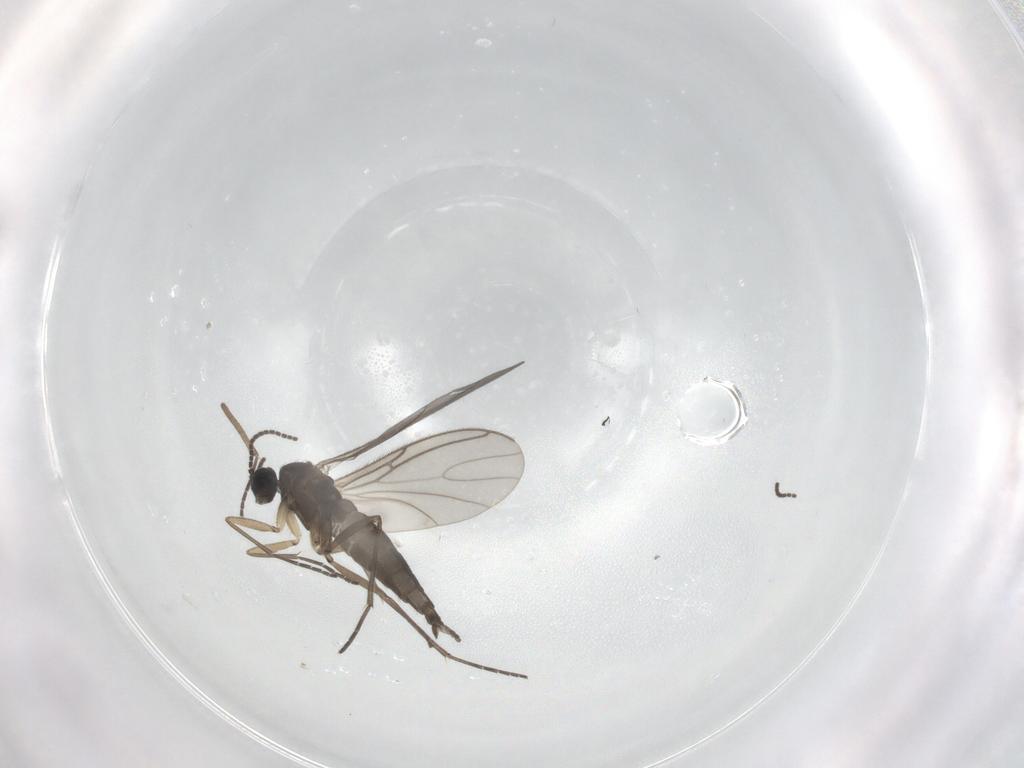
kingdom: Animalia
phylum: Arthropoda
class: Insecta
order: Diptera
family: Sciaridae
